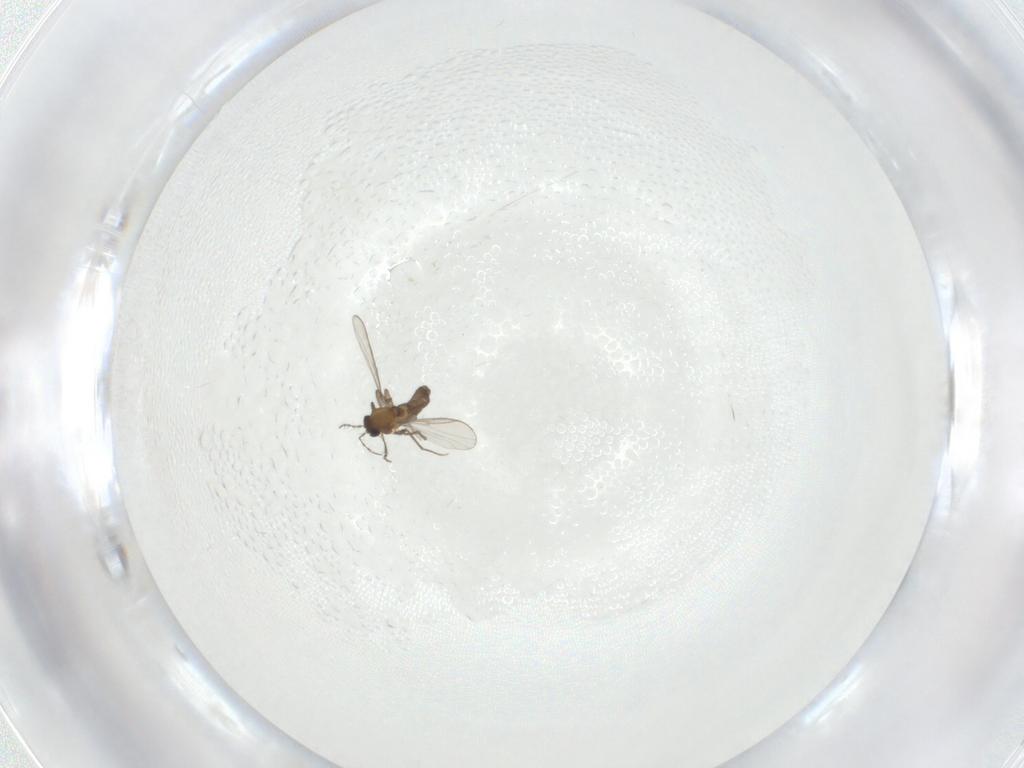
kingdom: Animalia
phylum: Arthropoda
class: Insecta
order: Diptera
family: Chironomidae
